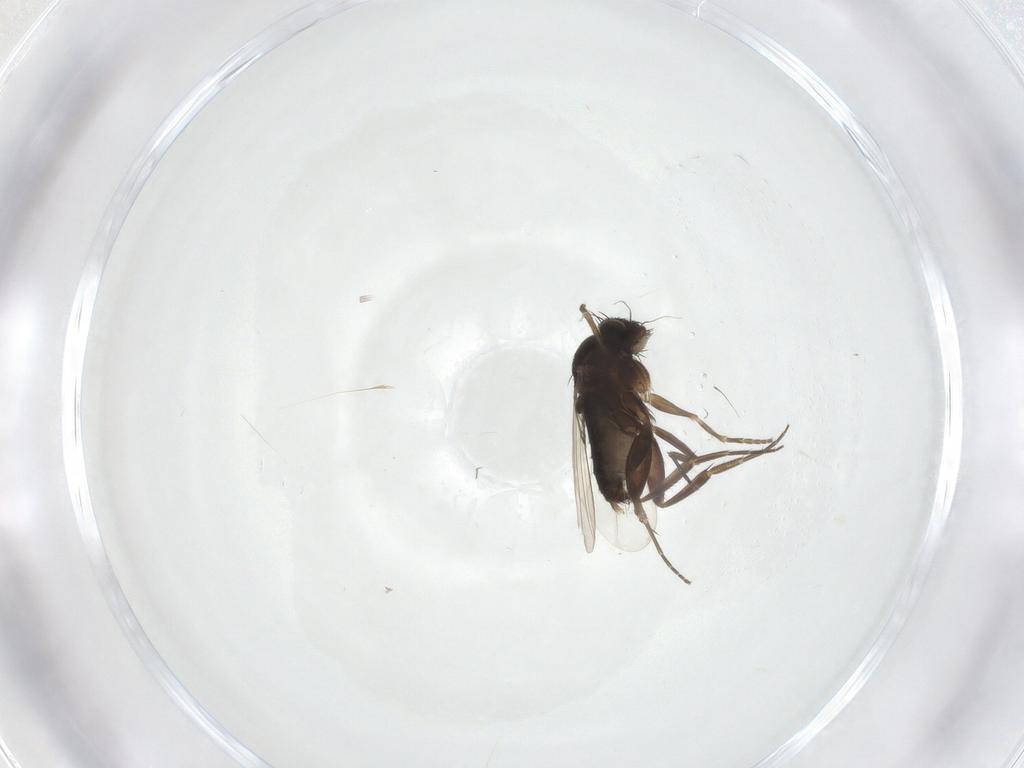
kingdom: Animalia
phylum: Arthropoda
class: Insecta
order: Diptera
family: Phoridae
